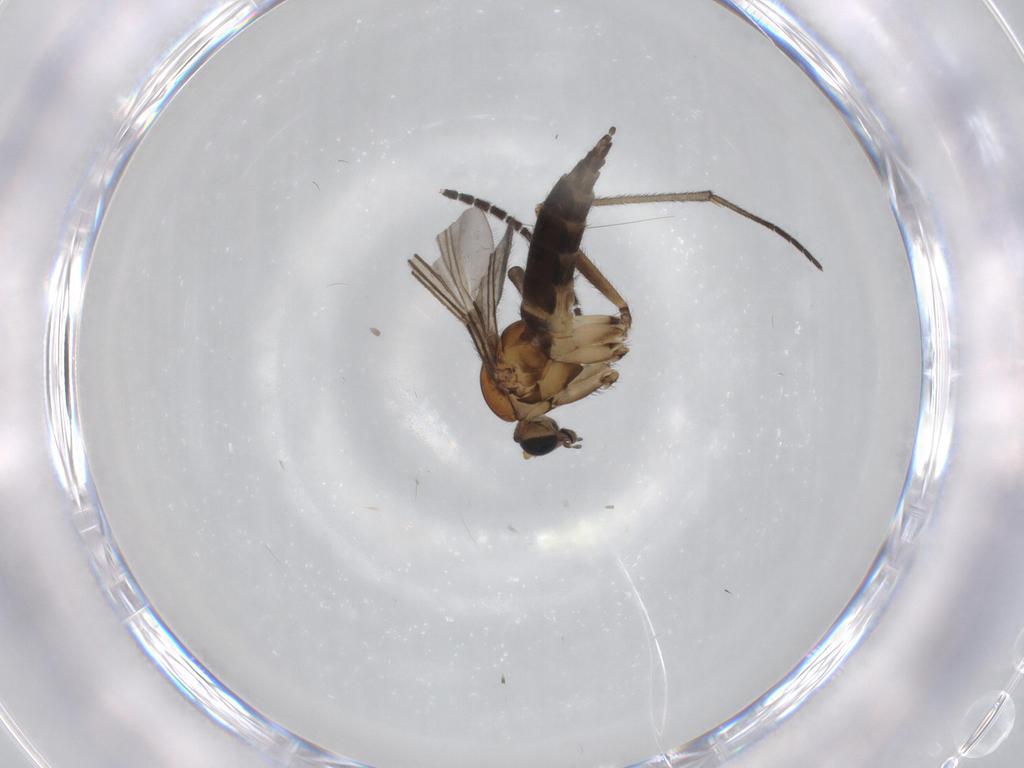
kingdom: Animalia
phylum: Arthropoda
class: Insecta
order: Diptera
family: Sciaridae
